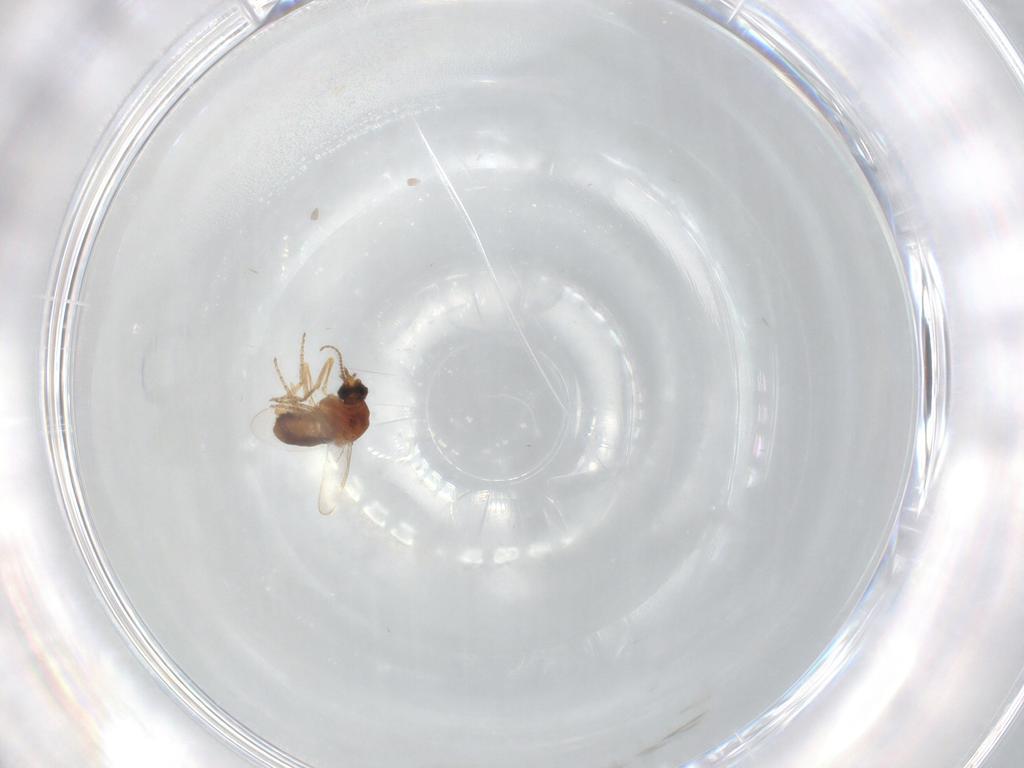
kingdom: Animalia
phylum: Arthropoda
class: Insecta
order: Diptera
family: Ceratopogonidae
